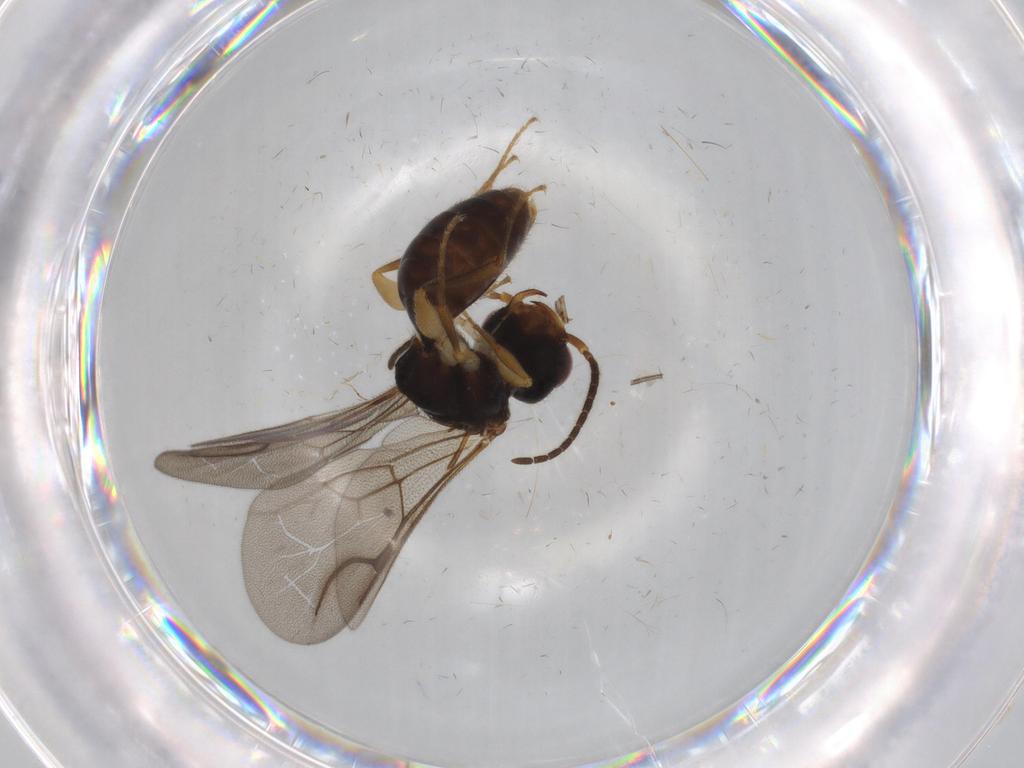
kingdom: Animalia
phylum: Arthropoda
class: Insecta
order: Hymenoptera
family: Bethylidae
